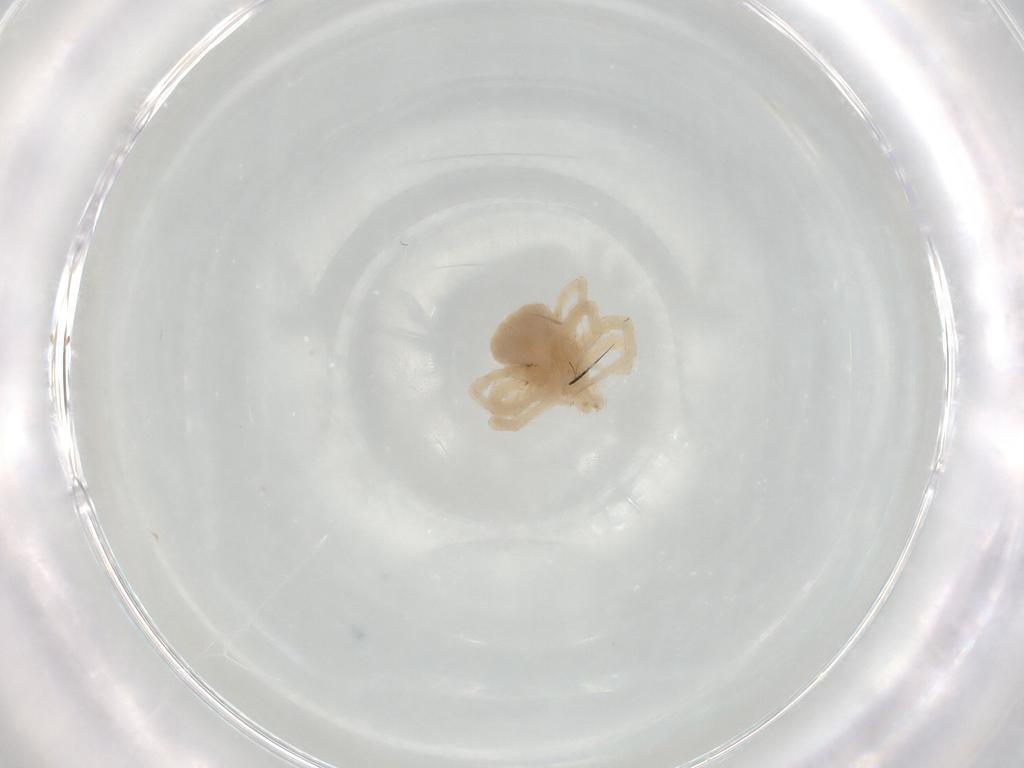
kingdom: Animalia
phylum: Arthropoda
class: Arachnida
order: Trombidiformes
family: Anystidae
